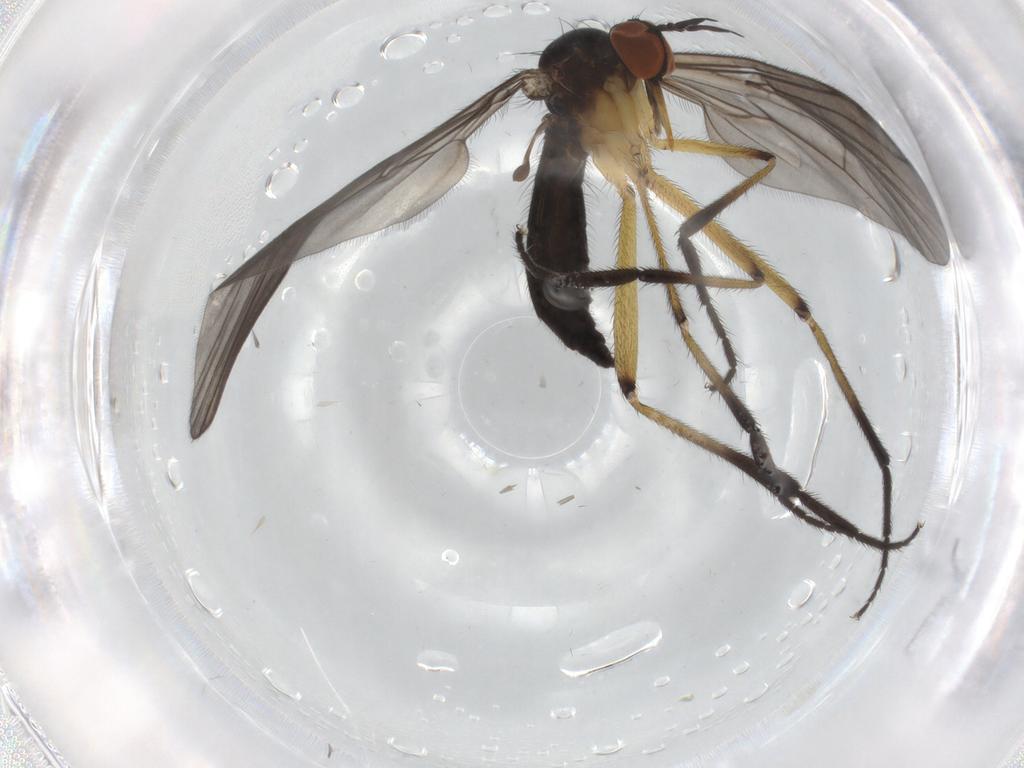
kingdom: Animalia
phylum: Arthropoda
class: Insecta
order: Diptera
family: Empididae
